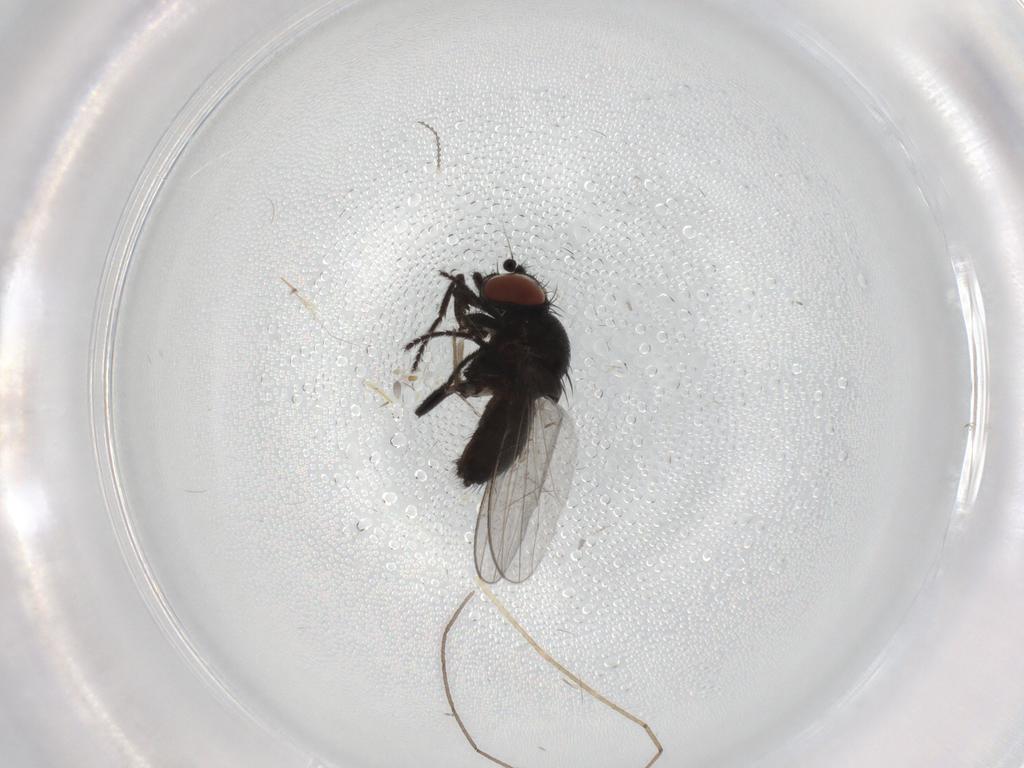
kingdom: Animalia
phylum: Arthropoda
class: Insecta
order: Diptera
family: Milichiidae
